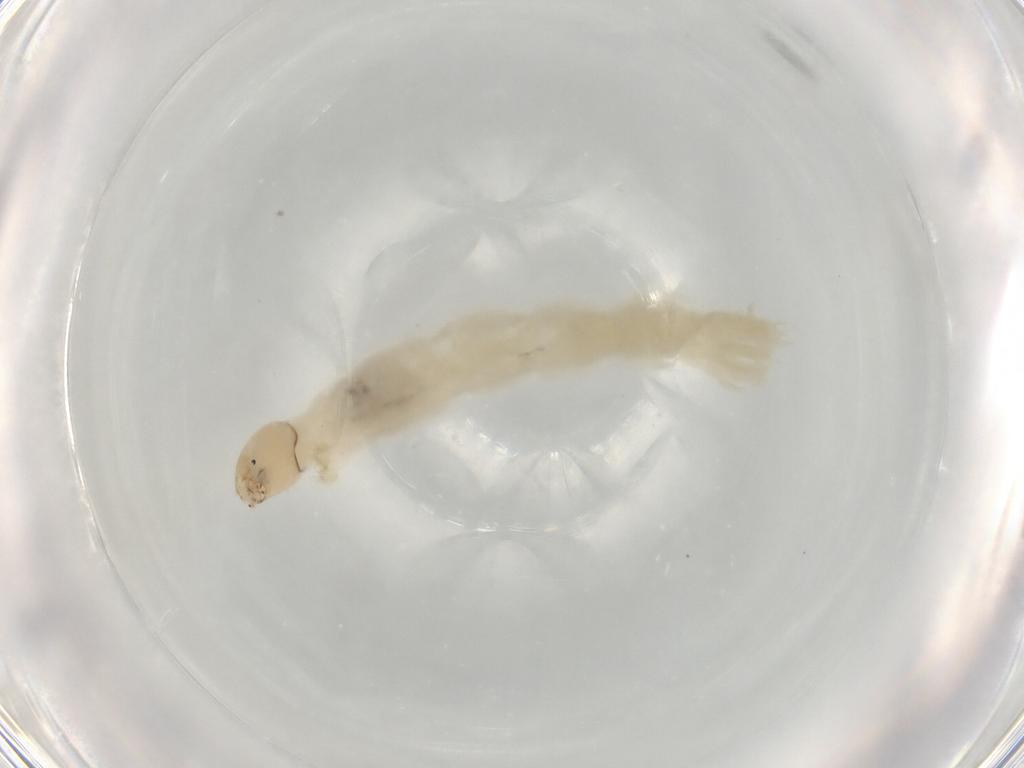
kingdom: Animalia
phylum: Arthropoda
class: Insecta
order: Diptera
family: Chironomidae
